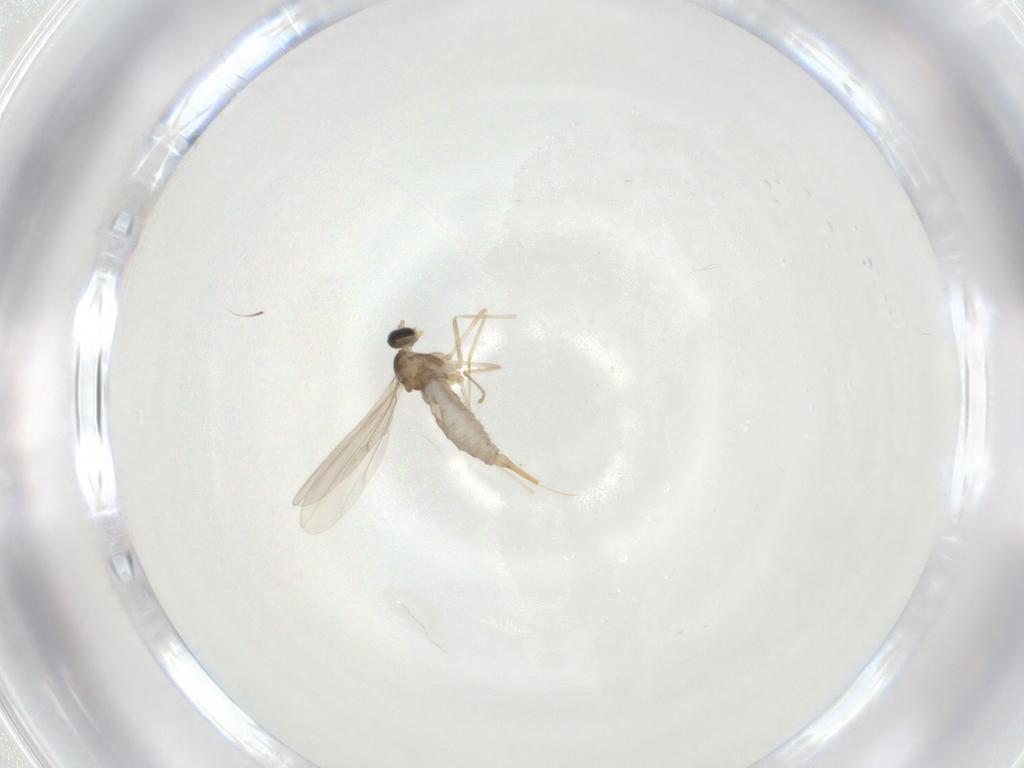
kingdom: Animalia
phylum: Arthropoda
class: Insecta
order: Diptera
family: Cecidomyiidae
